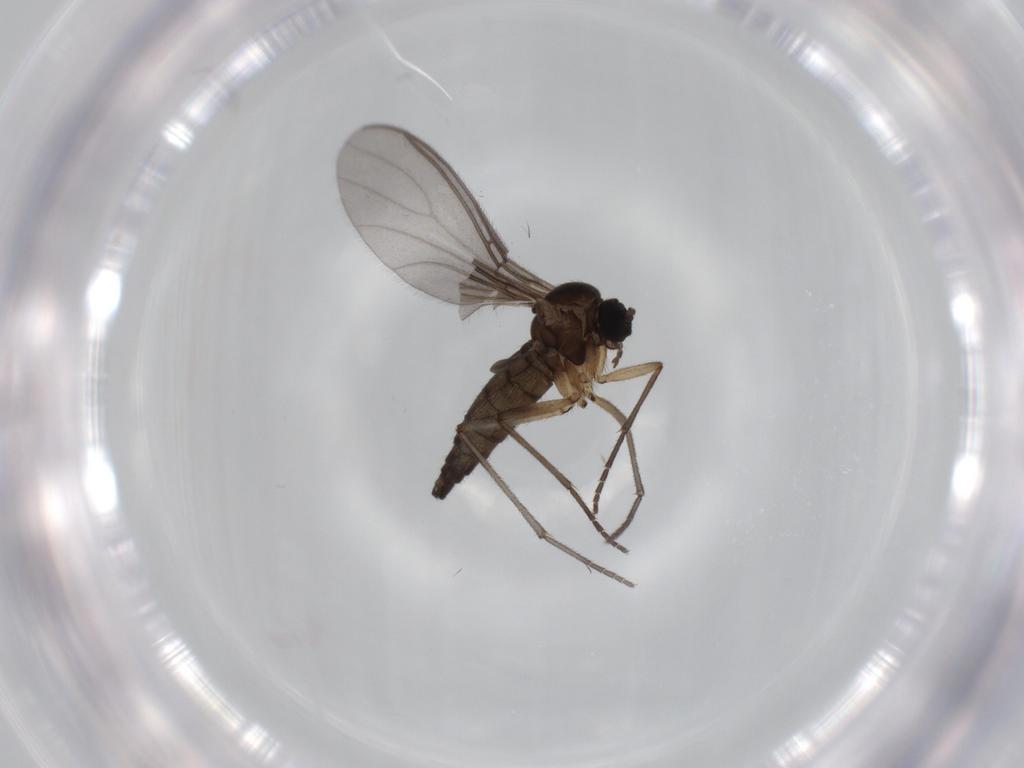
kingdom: Animalia
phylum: Arthropoda
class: Insecta
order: Diptera
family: Sciaridae
